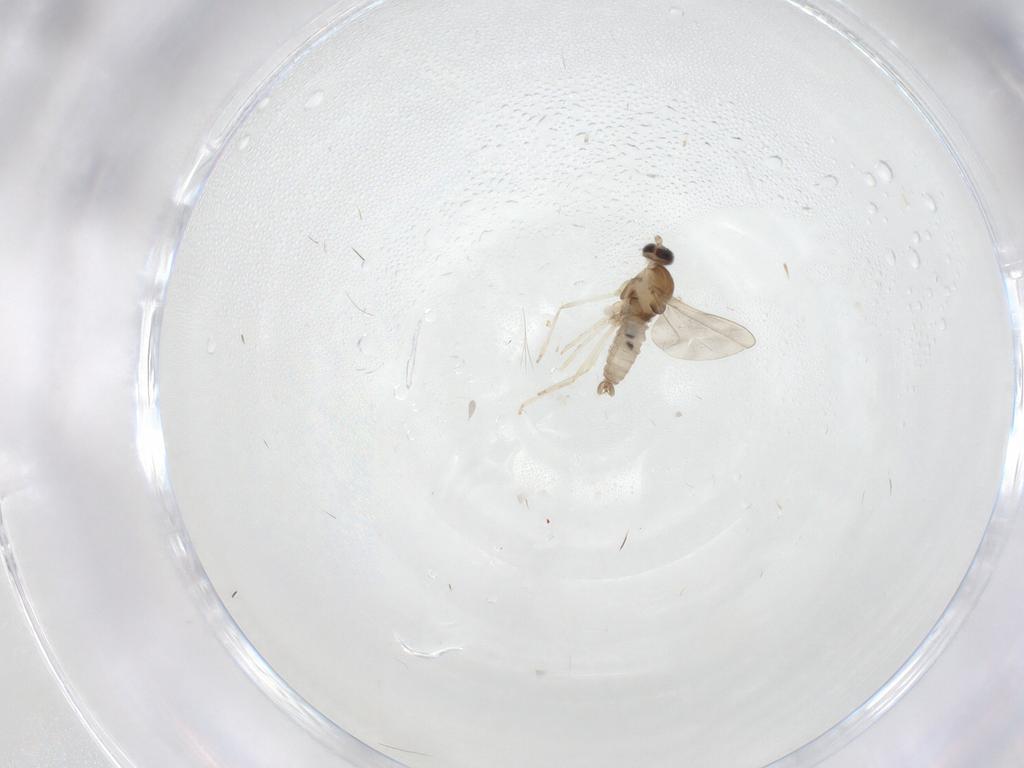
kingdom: Animalia
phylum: Arthropoda
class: Insecta
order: Diptera
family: Cecidomyiidae
